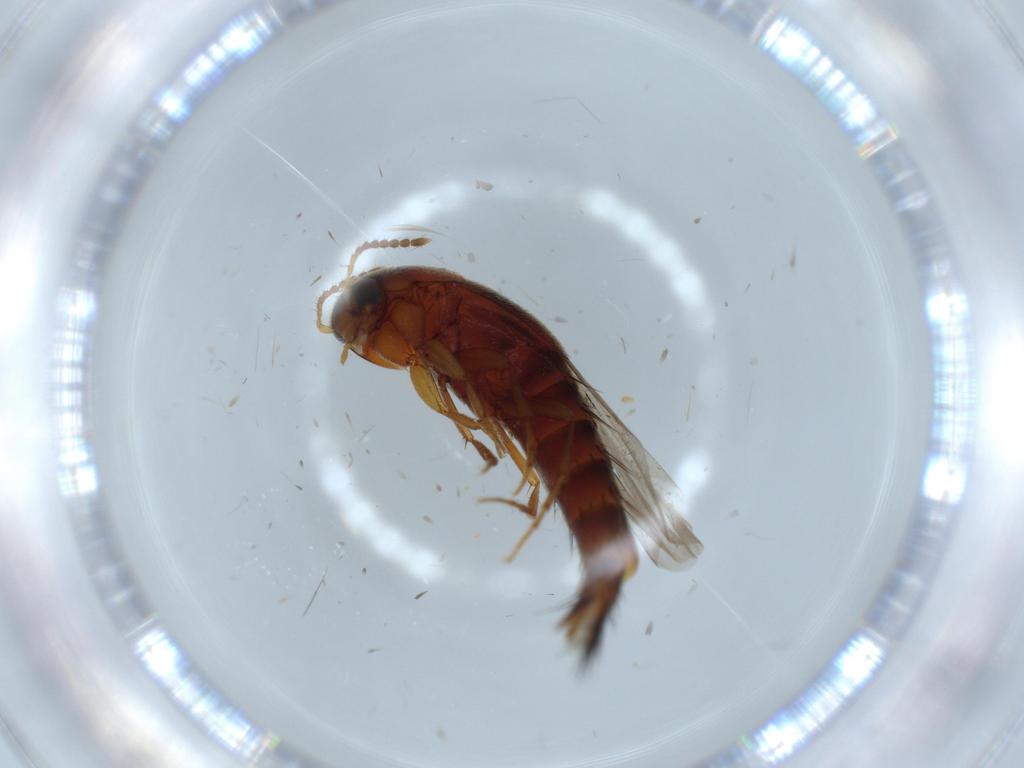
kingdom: Animalia
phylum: Arthropoda
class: Insecta
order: Coleoptera
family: Staphylinidae
